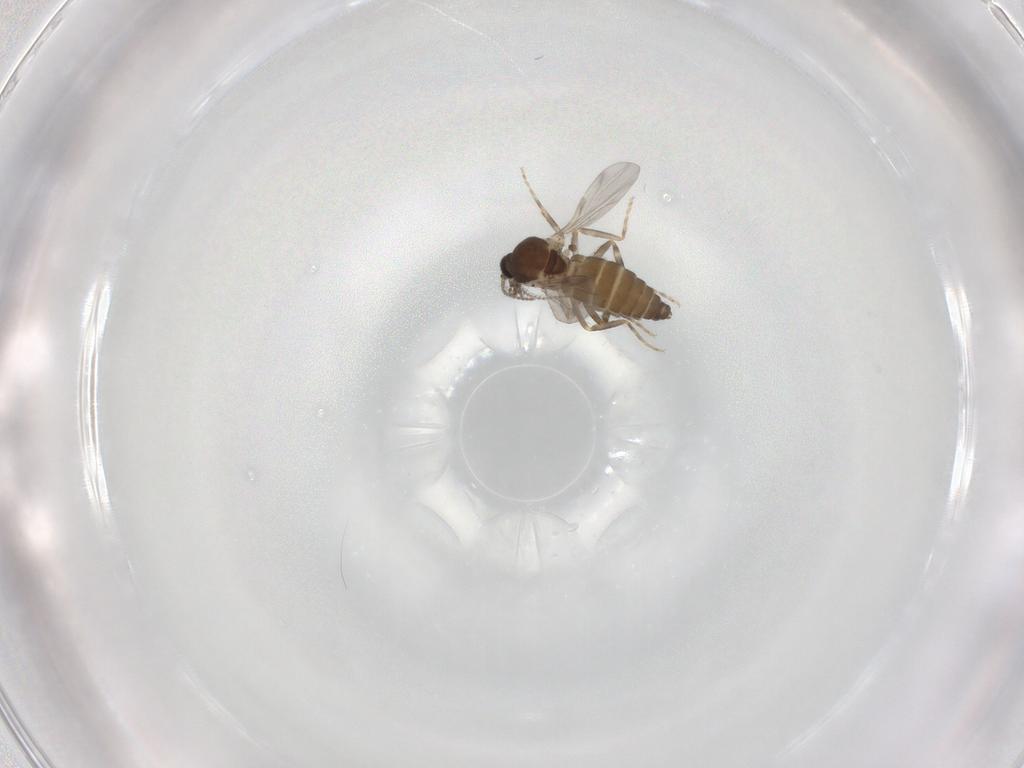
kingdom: Animalia
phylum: Arthropoda
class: Insecta
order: Diptera
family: Ceratopogonidae
